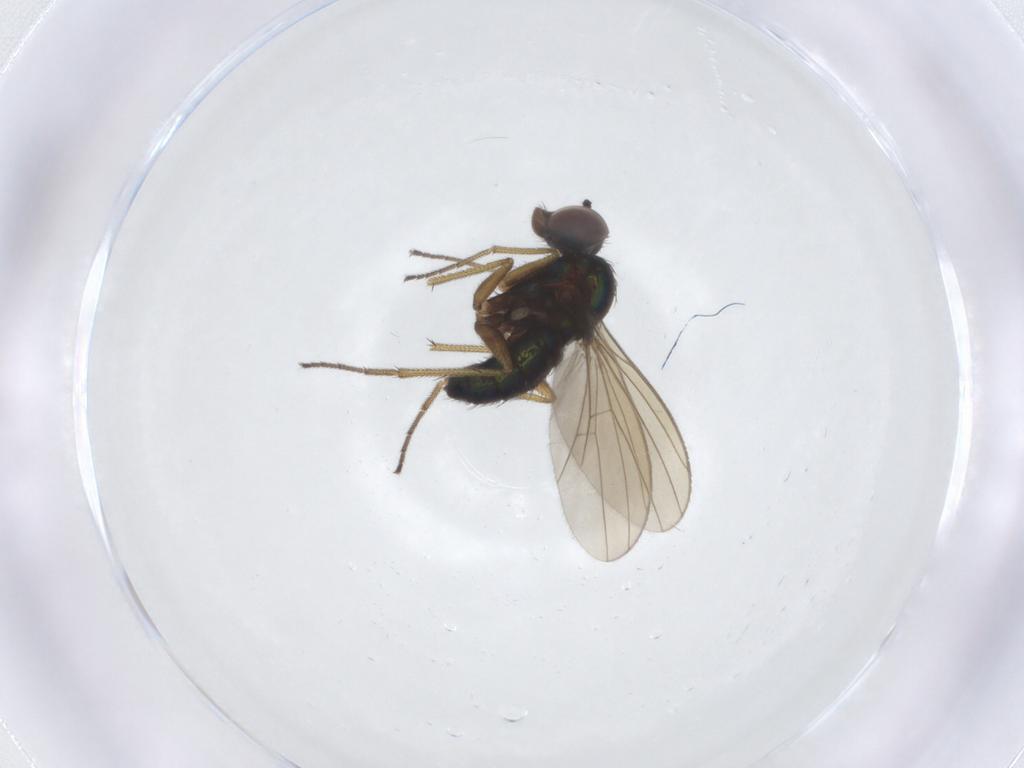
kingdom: Animalia
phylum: Arthropoda
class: Insecta
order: Diptera
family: Dolichopodidae
